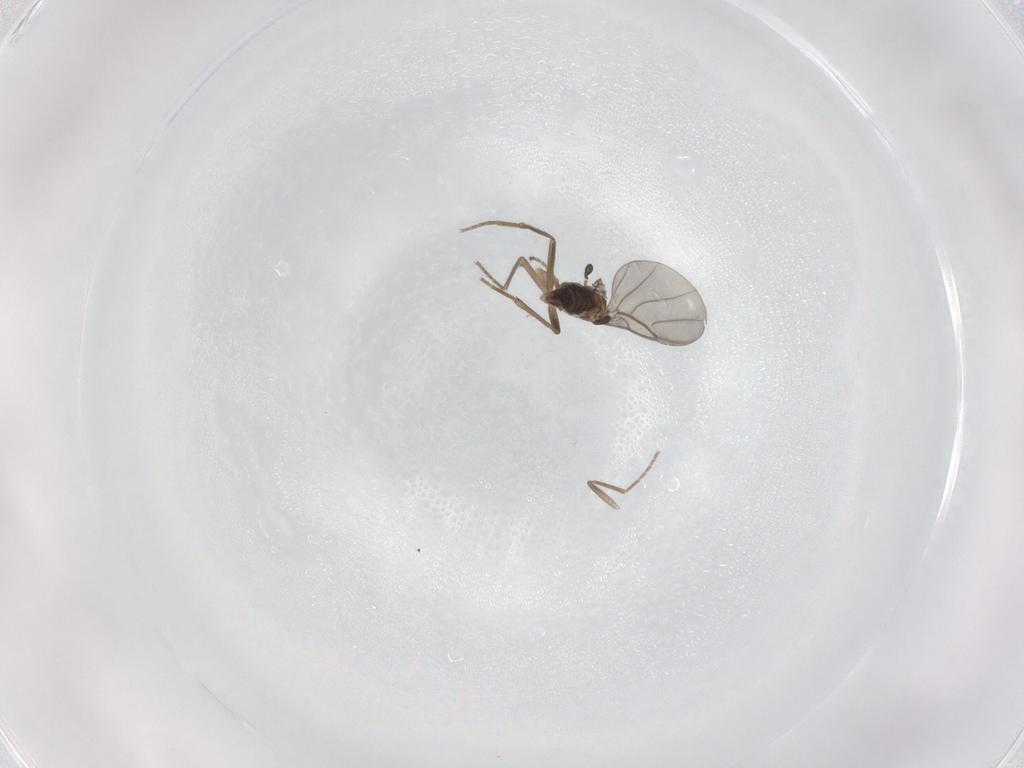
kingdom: Animalia
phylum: Arthropoda
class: Insecta
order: Diptera
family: Phoridae
